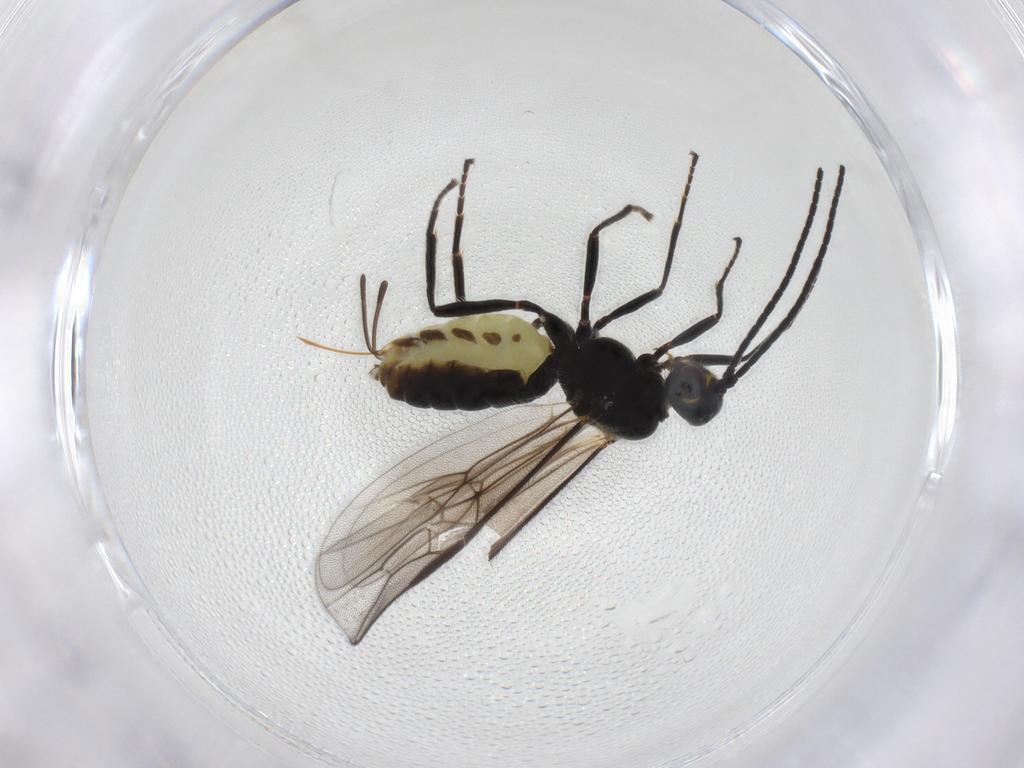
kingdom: Animalia
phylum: Arthropoda
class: Insecta
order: Hymenoptera
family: Braconidae
